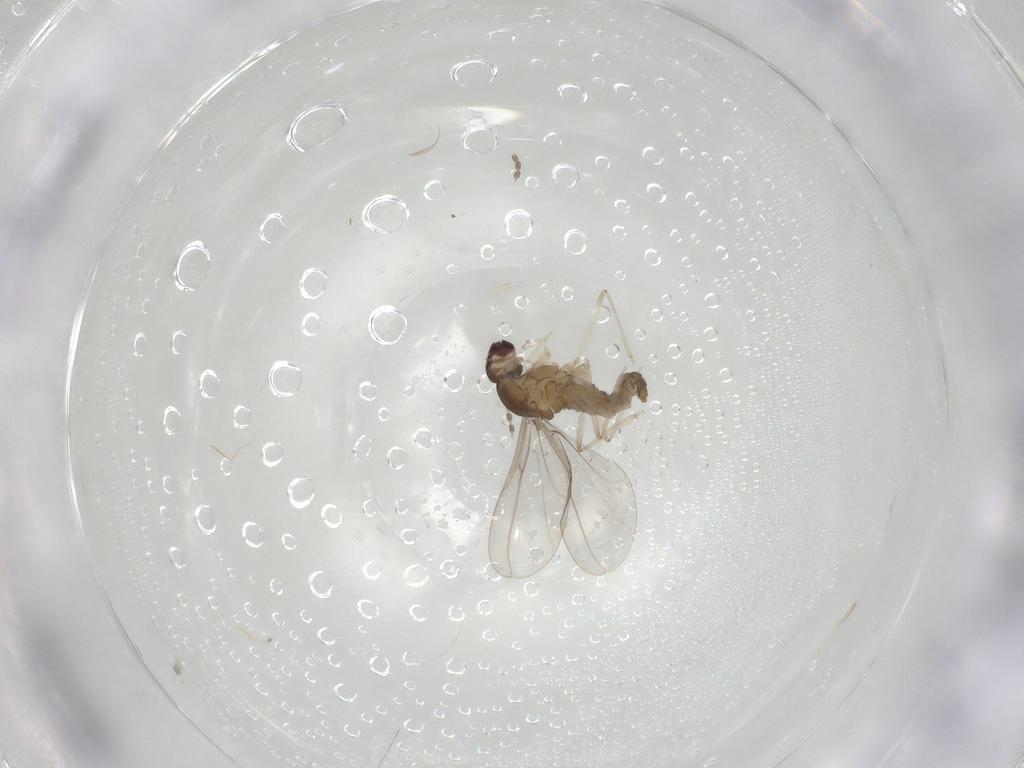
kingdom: Animalia
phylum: Arthropoda
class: Insecta
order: Diptera
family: Cecidomyiidae
